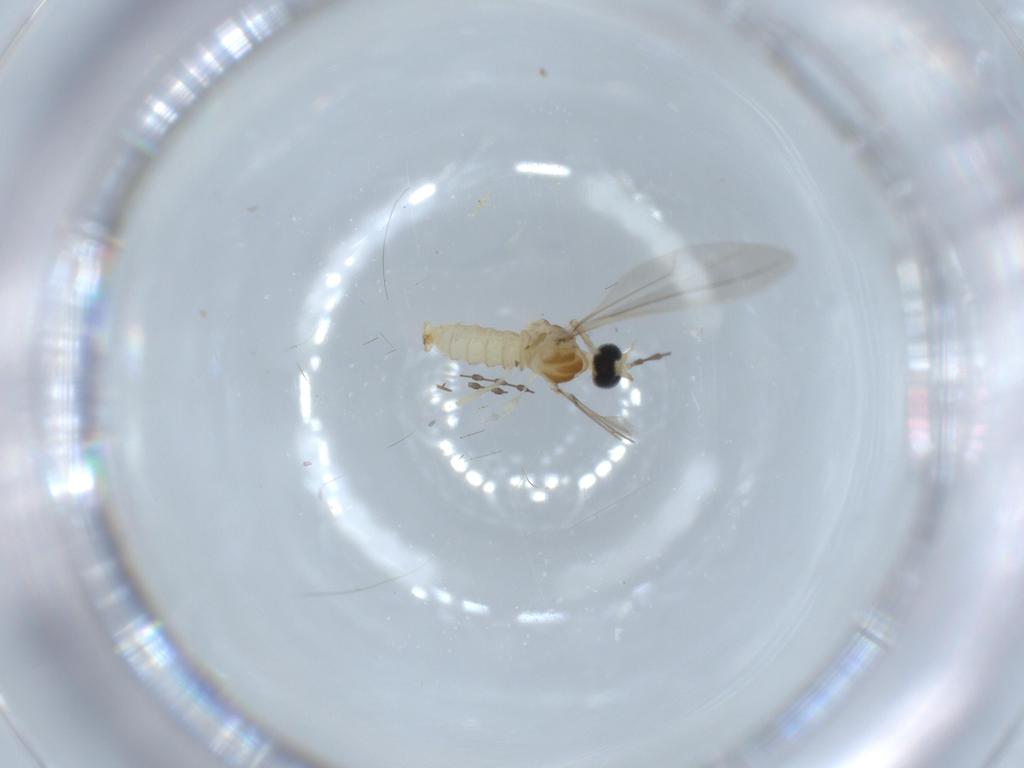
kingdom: Animalia
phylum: Arthropoda
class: Insecta
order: Diptera
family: Cecidomyiidae
